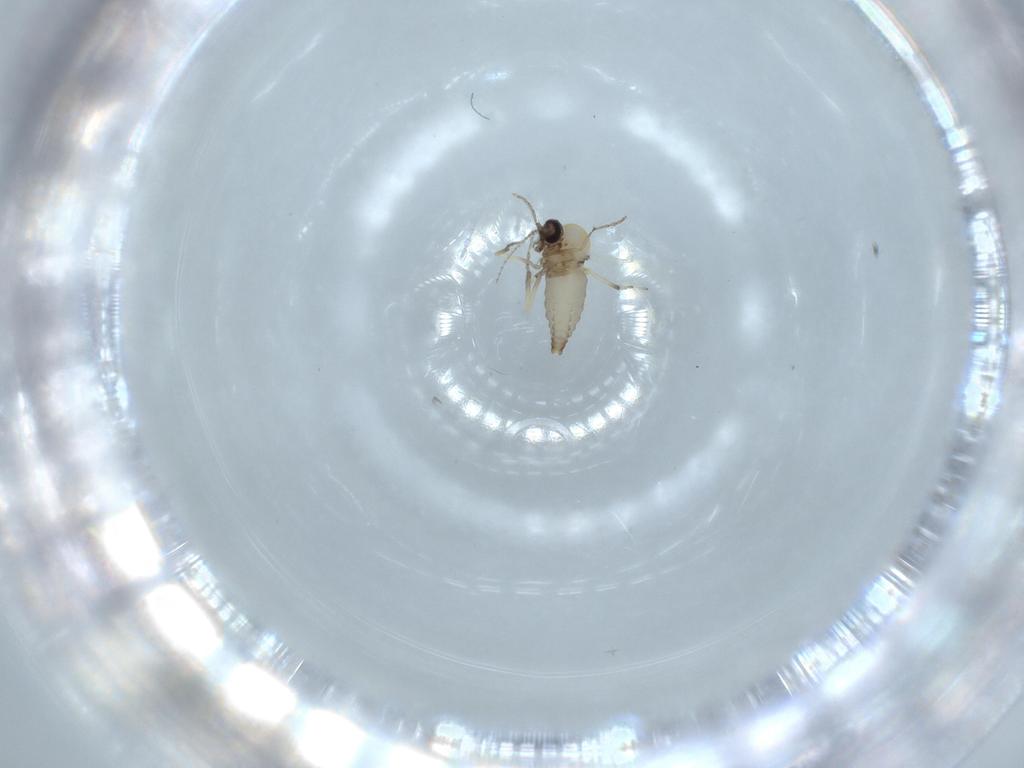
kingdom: Animalia
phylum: Arthropoda
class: Insecta
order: Diptera
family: Ceratopogonidae
